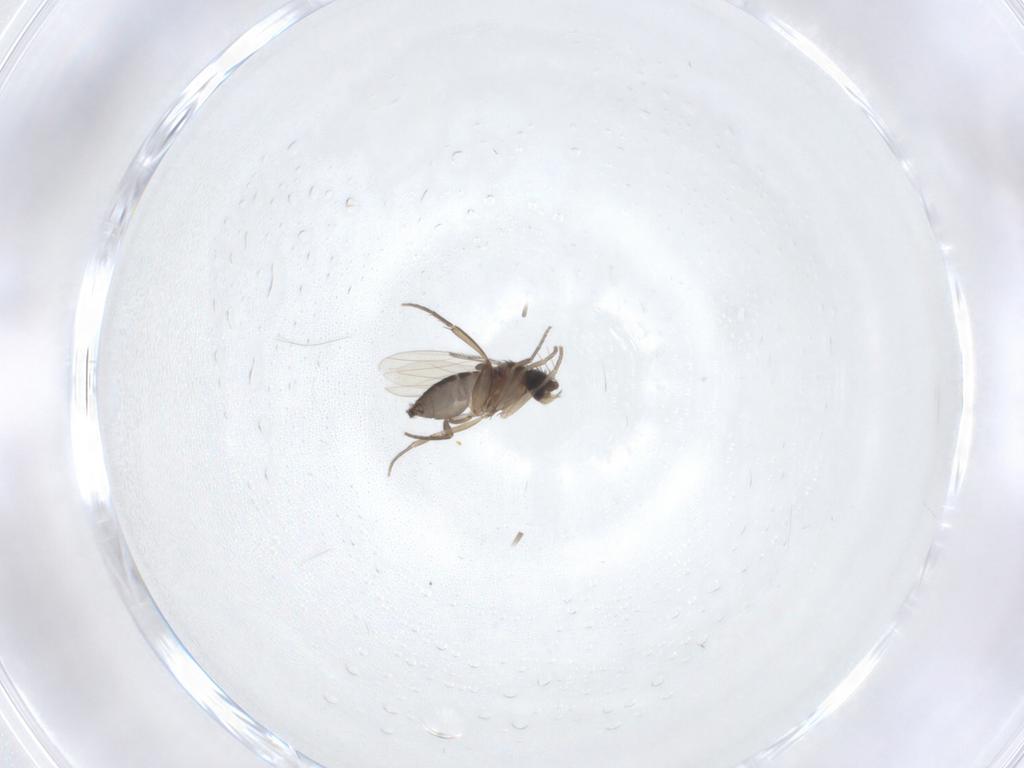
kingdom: Animalia
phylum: Arthropoda
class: Insecta
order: Diptera
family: Phoridae
